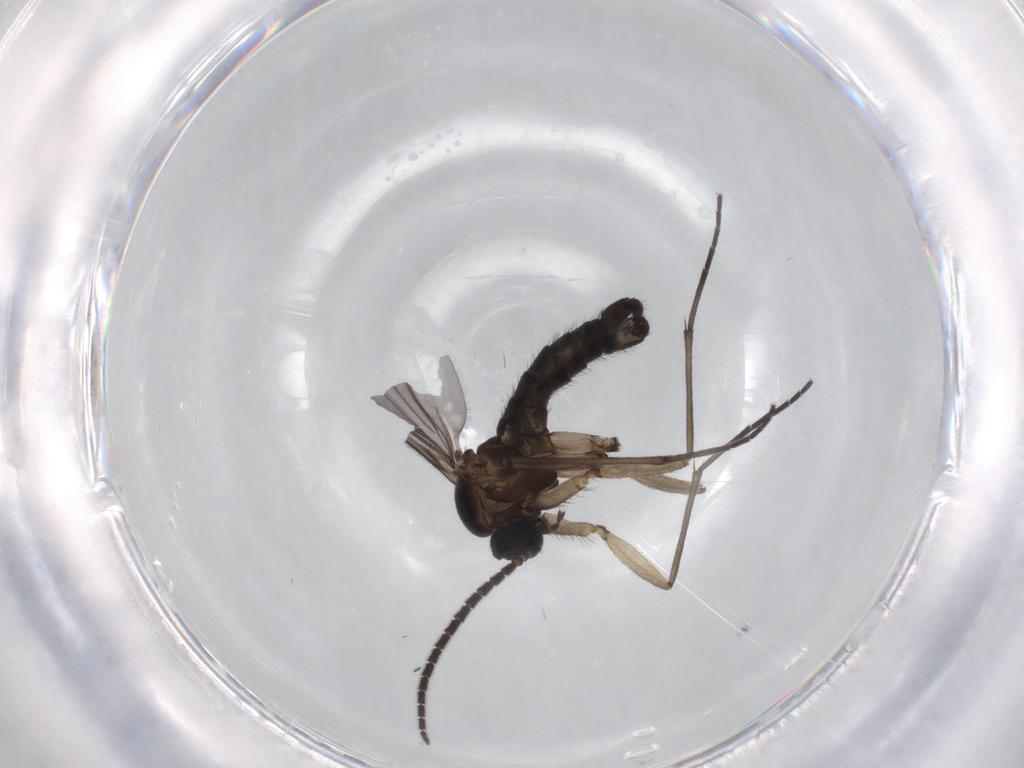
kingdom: Animalia
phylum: Arthropoda
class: Insecta
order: Diptera
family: Sciaridae
